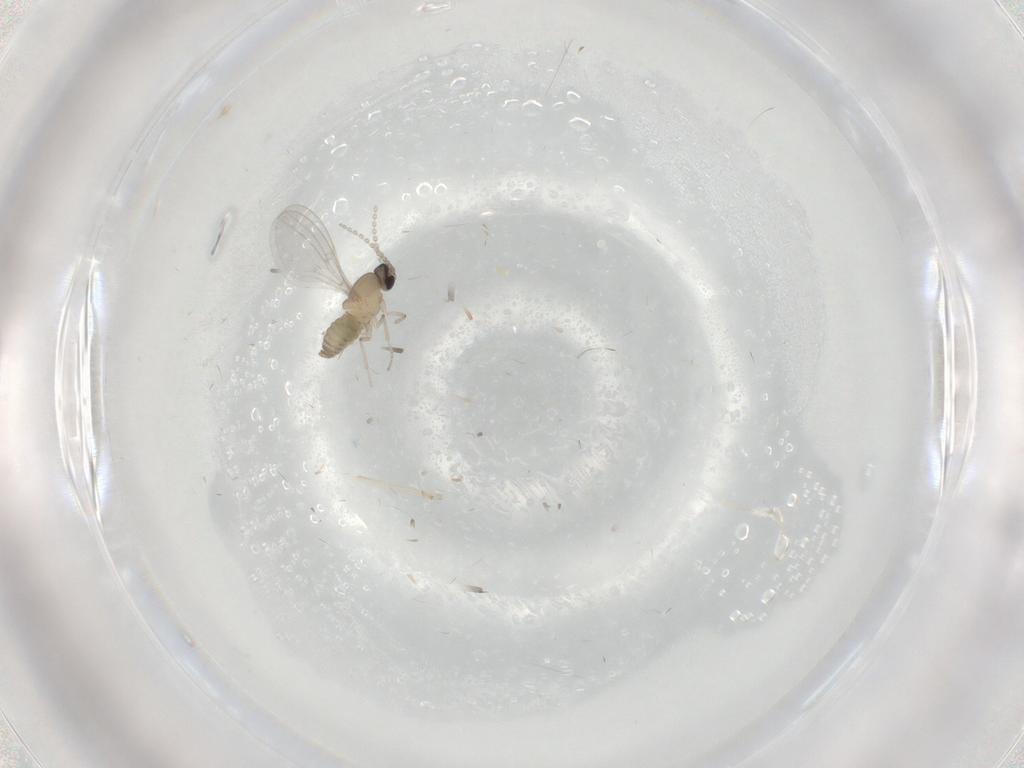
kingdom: Animalia
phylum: Arthropoda
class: Insecta
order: Diptera
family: Cecidomyiidae
